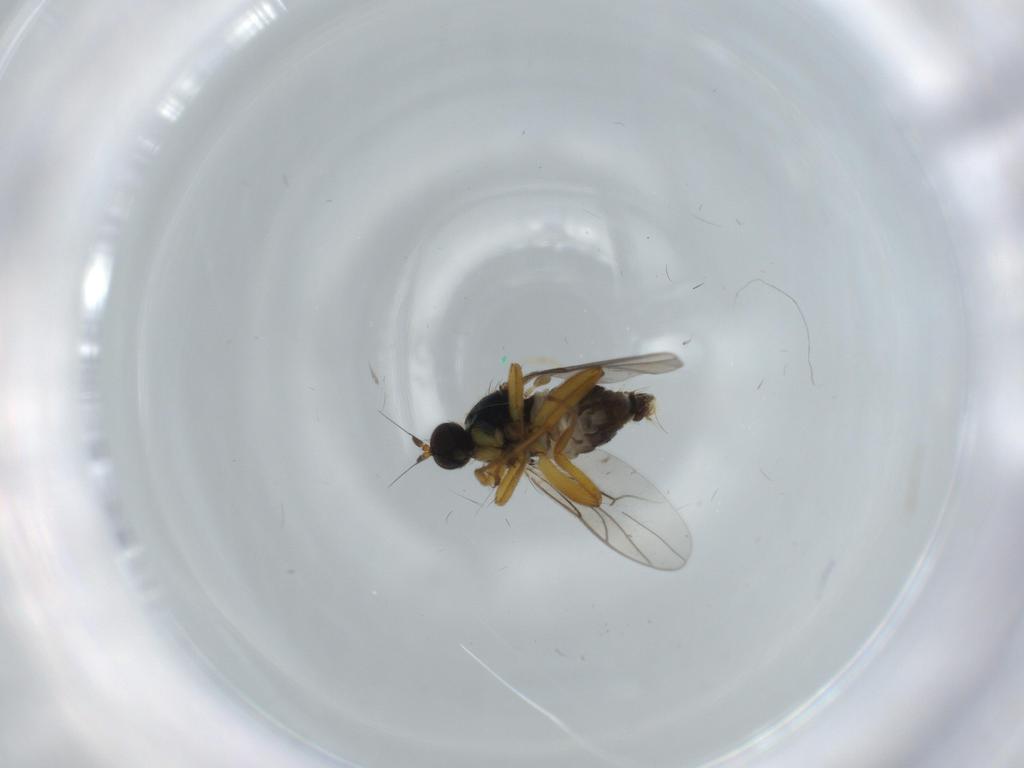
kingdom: Animalia
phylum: Arthropoda
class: Insecta
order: Diptera
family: Hybotidae
